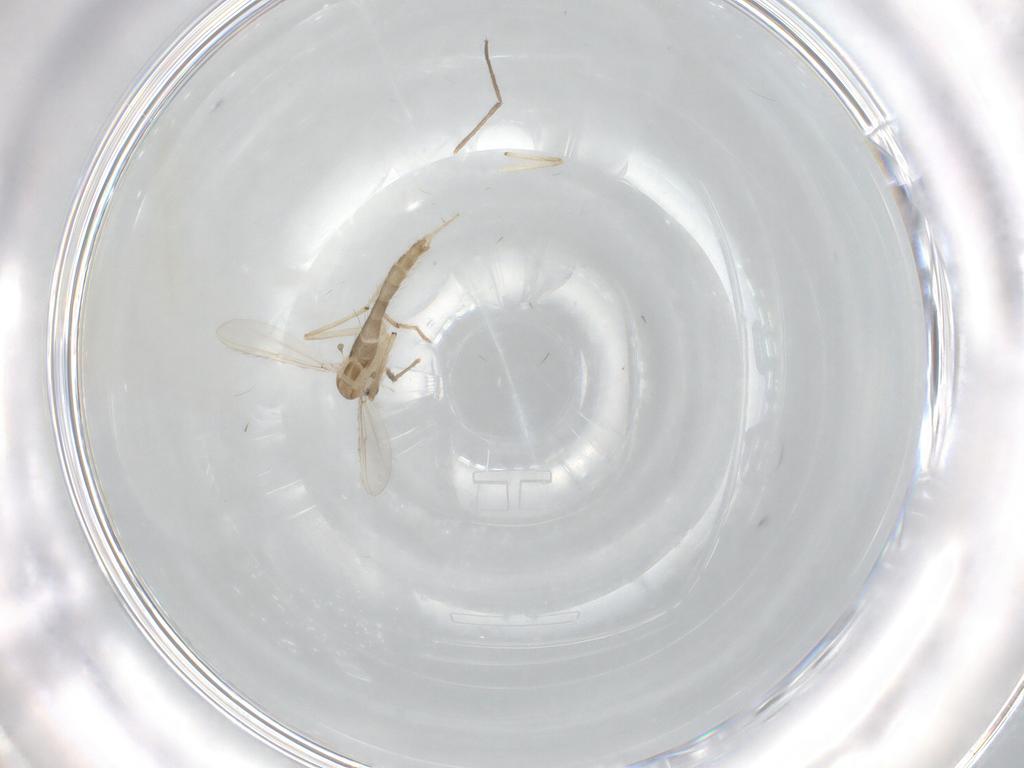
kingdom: Animalia
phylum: Arthropoda
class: Insecta
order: Diptera
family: Chironomidae
